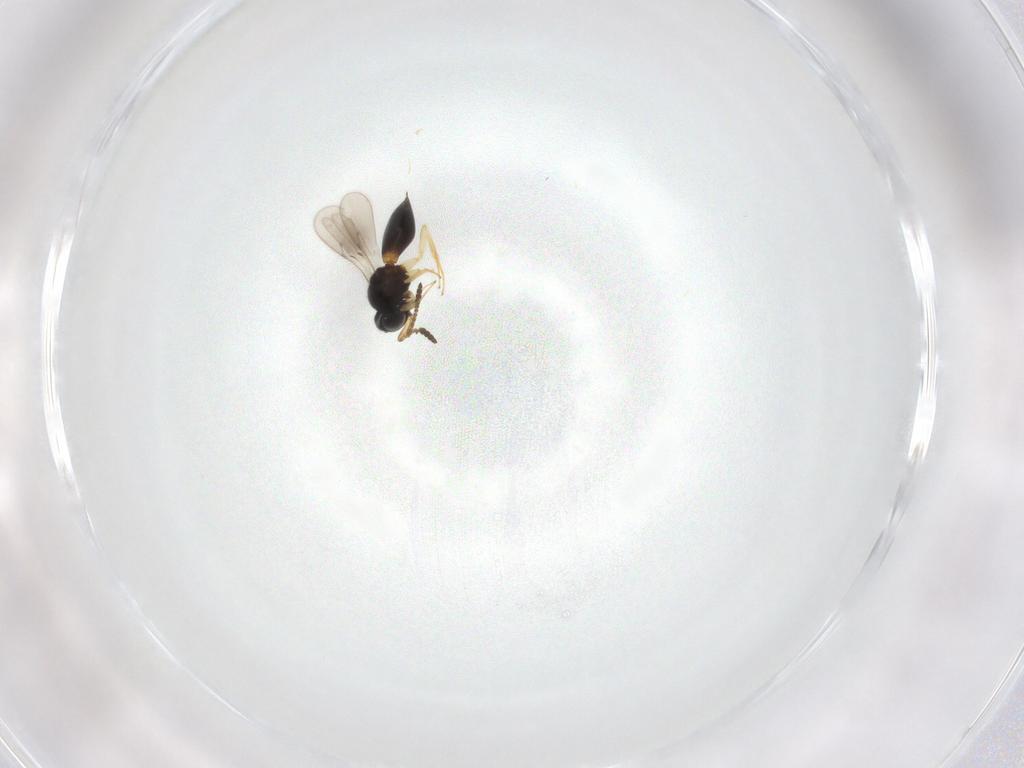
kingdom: Animalia
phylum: Arthropoda
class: Insecta
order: Hymenoptera
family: Scelionidae
